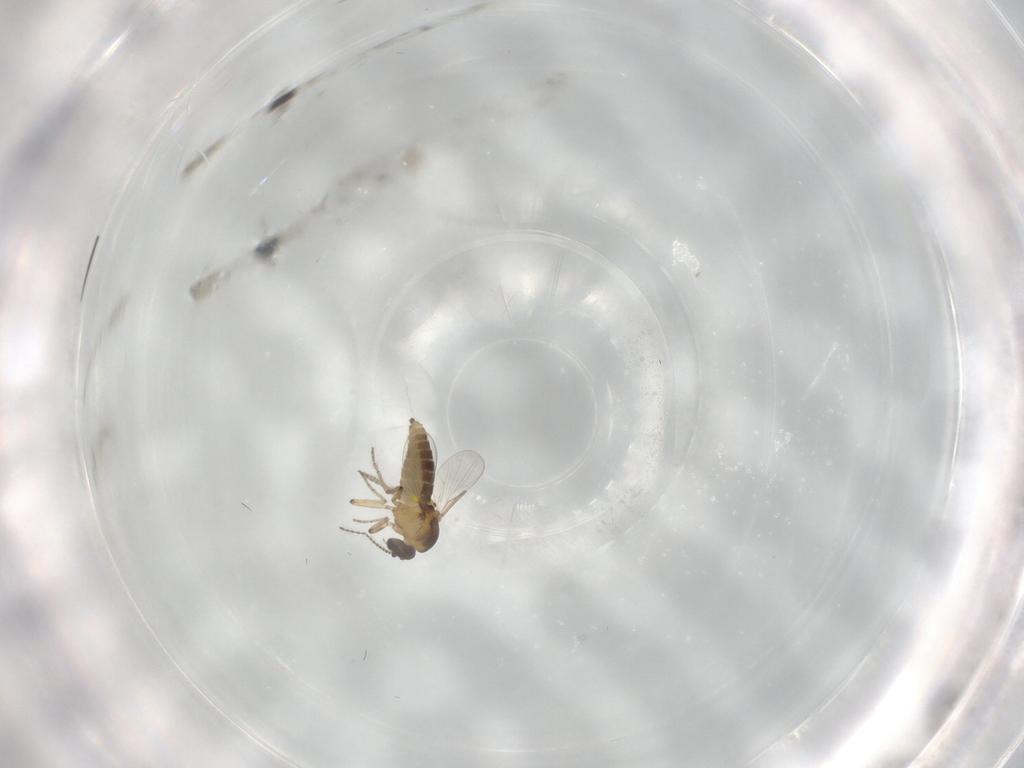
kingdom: Animalia
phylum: Arthropoda
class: Insecta
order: Diptera
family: Ceratopogonidae
